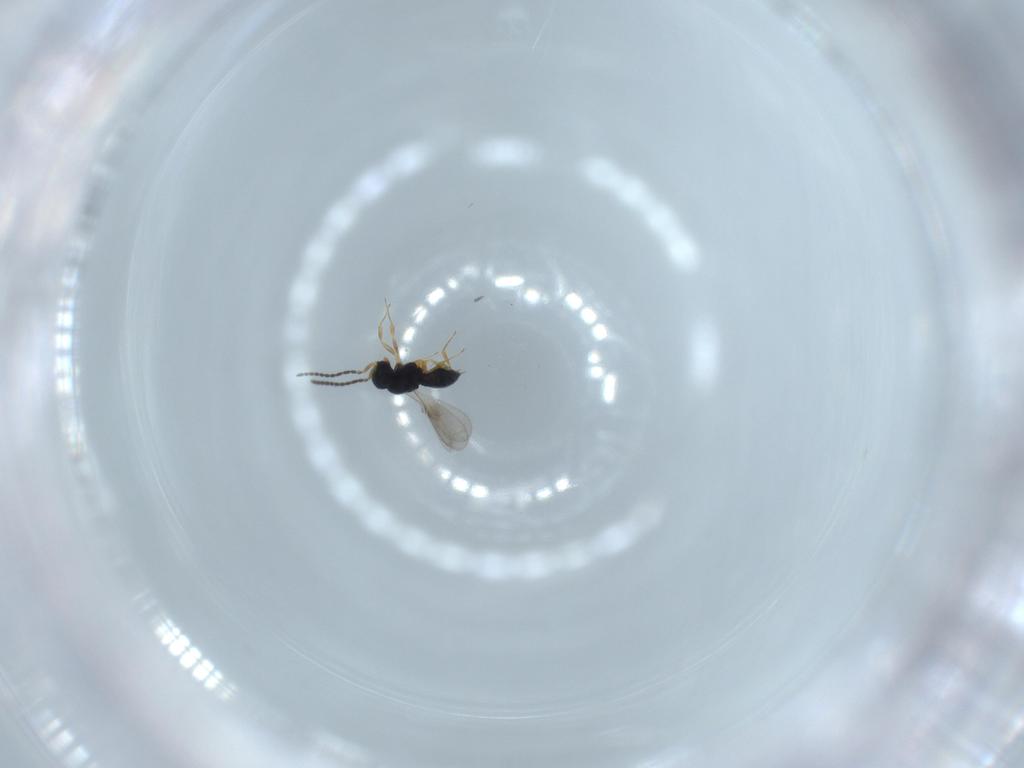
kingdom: Animalia
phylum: Arthropoda
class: Insecta
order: Hymenoptera
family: Scelionidae
